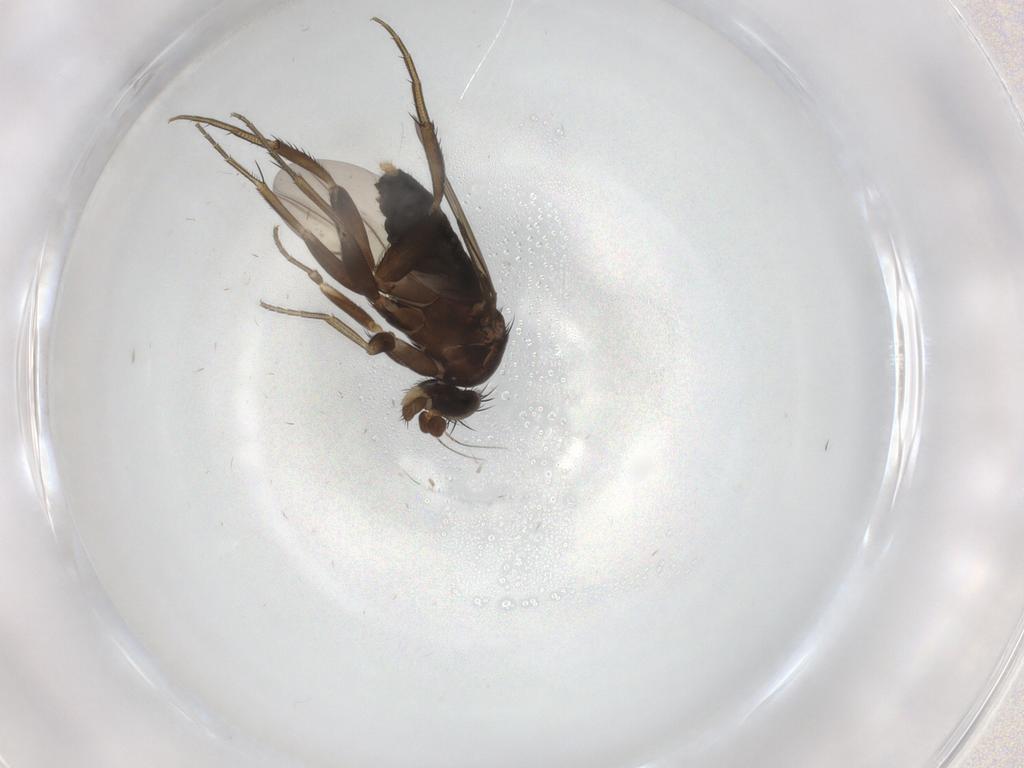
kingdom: Animalia
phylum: Arthropoda
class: Insecta
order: Diptera
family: Phoridae
